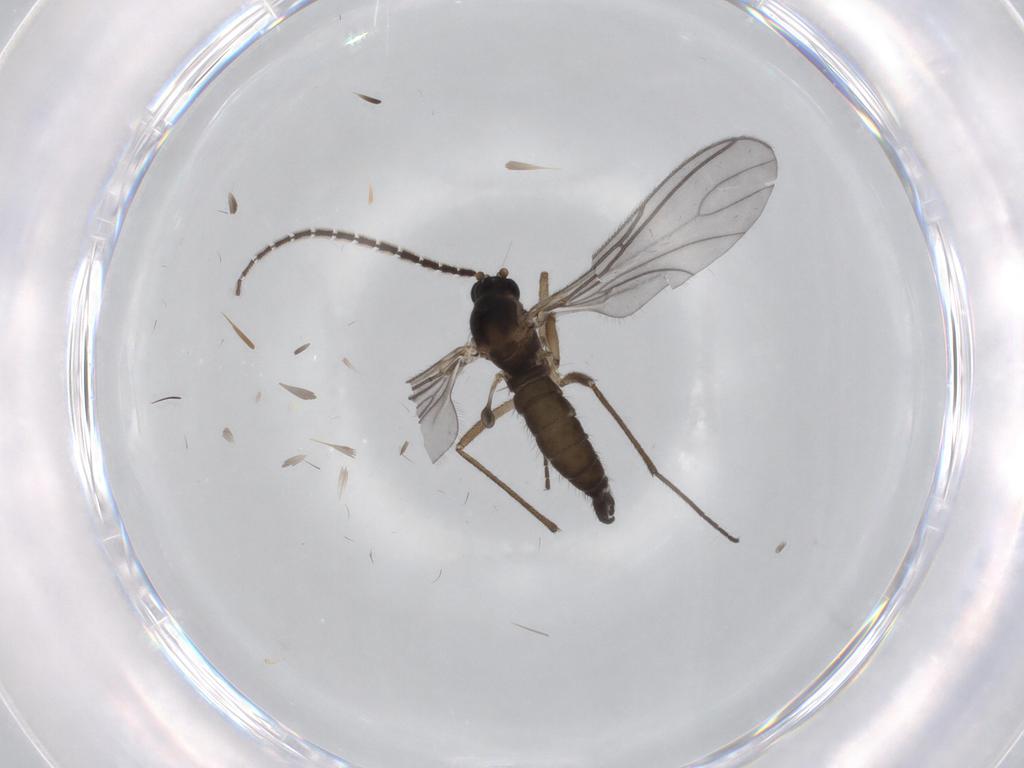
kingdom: Animalia
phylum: Arthropoda
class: Insecta
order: Diptera
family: Sciaridae
